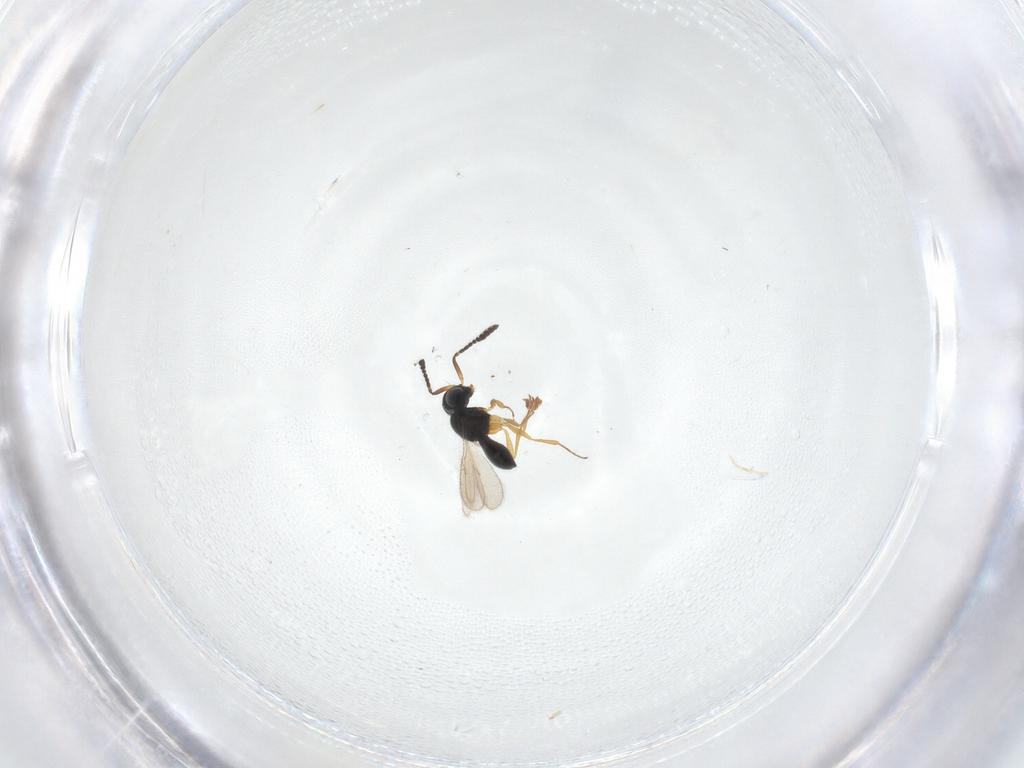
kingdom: Animalia
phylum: Arthropoda
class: Insecta
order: Hymenoptera
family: Scelionidae
